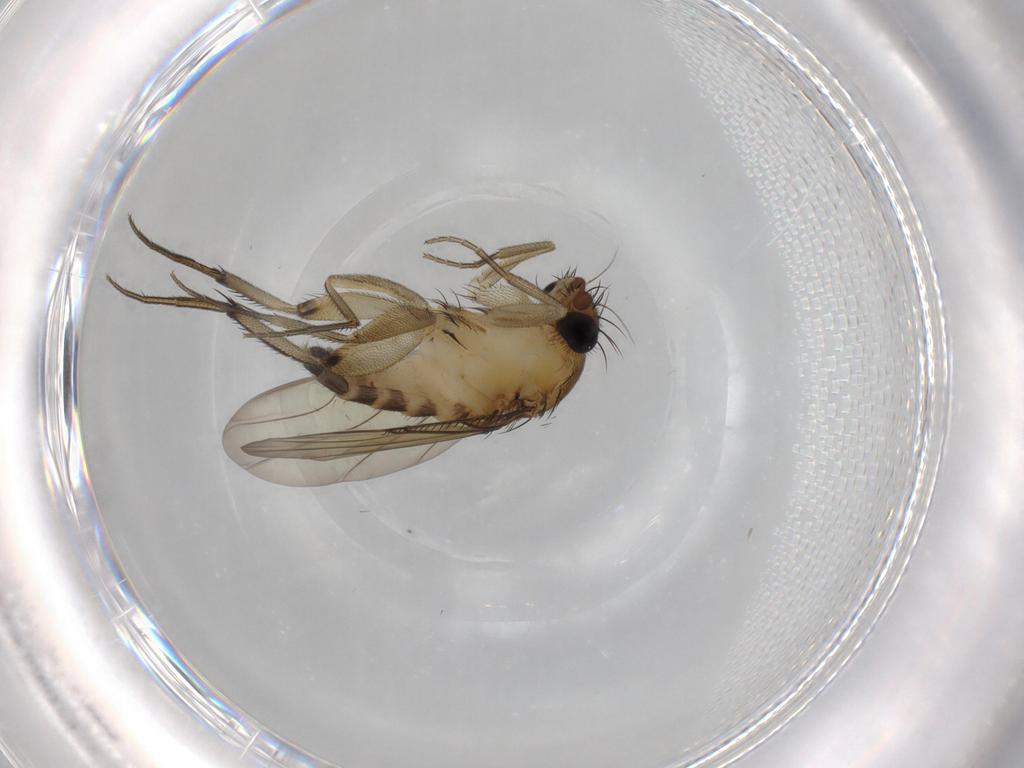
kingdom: Animalia
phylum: Arthropoda
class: Insecta
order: Diptera
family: Phoridae
